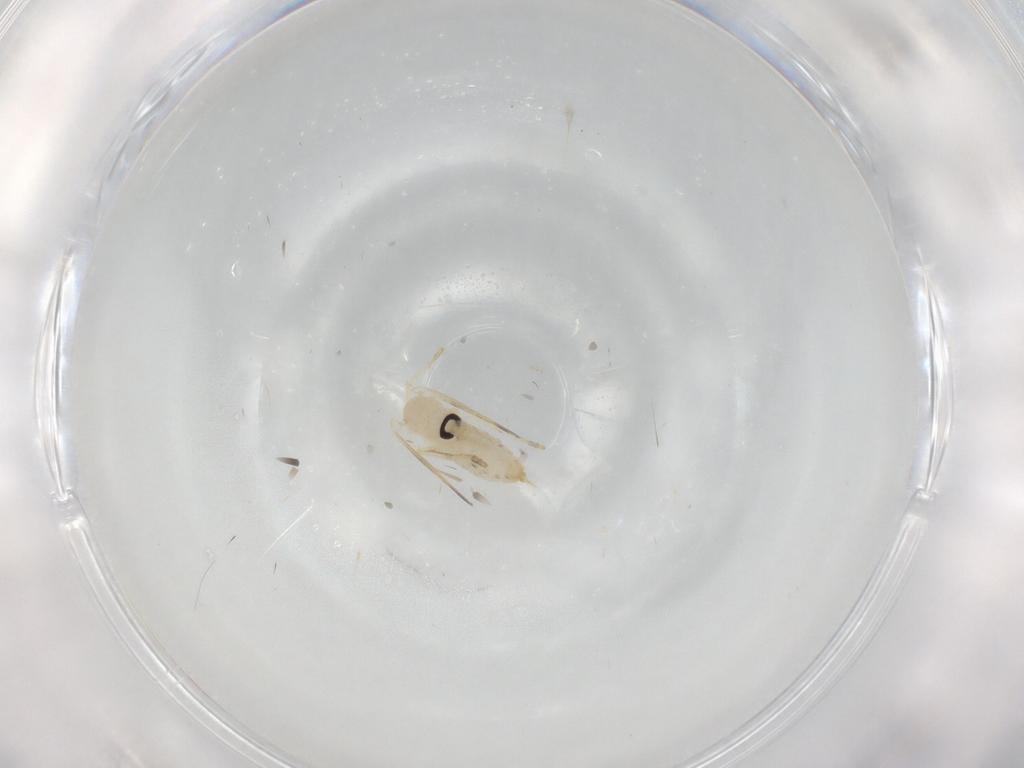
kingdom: Animalia
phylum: Arthropoda
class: Insecta
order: Diptera
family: Psychodidae
